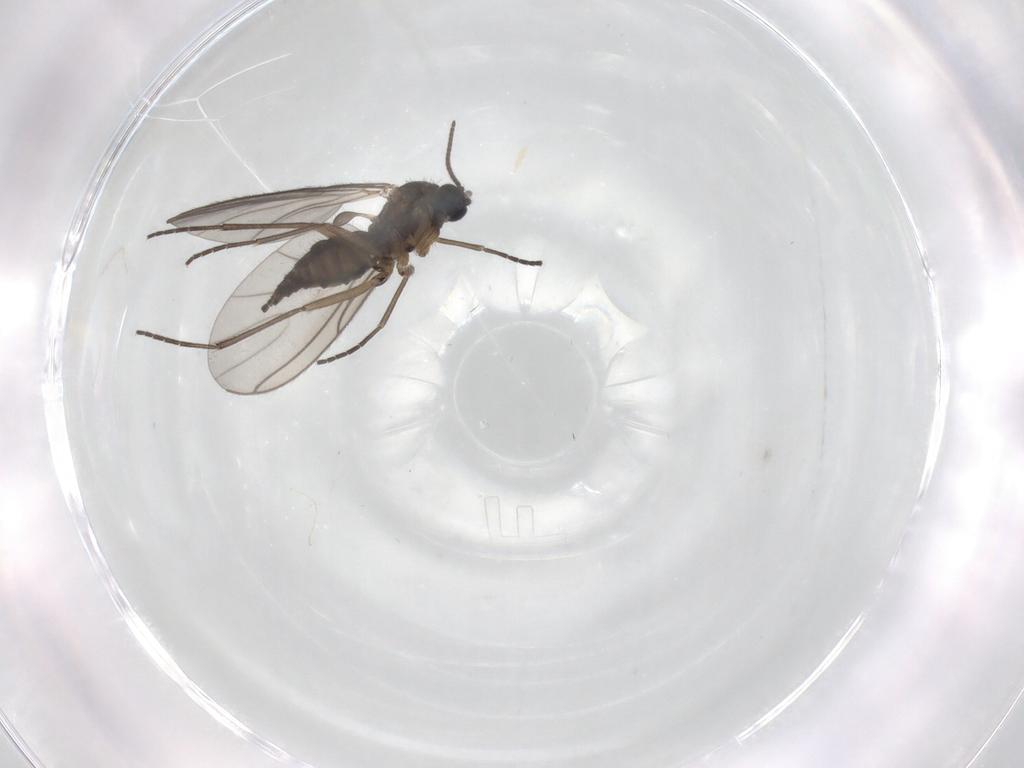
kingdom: Animalia
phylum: Arthropoda
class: Insecta
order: Diptera
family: Sciaridae
